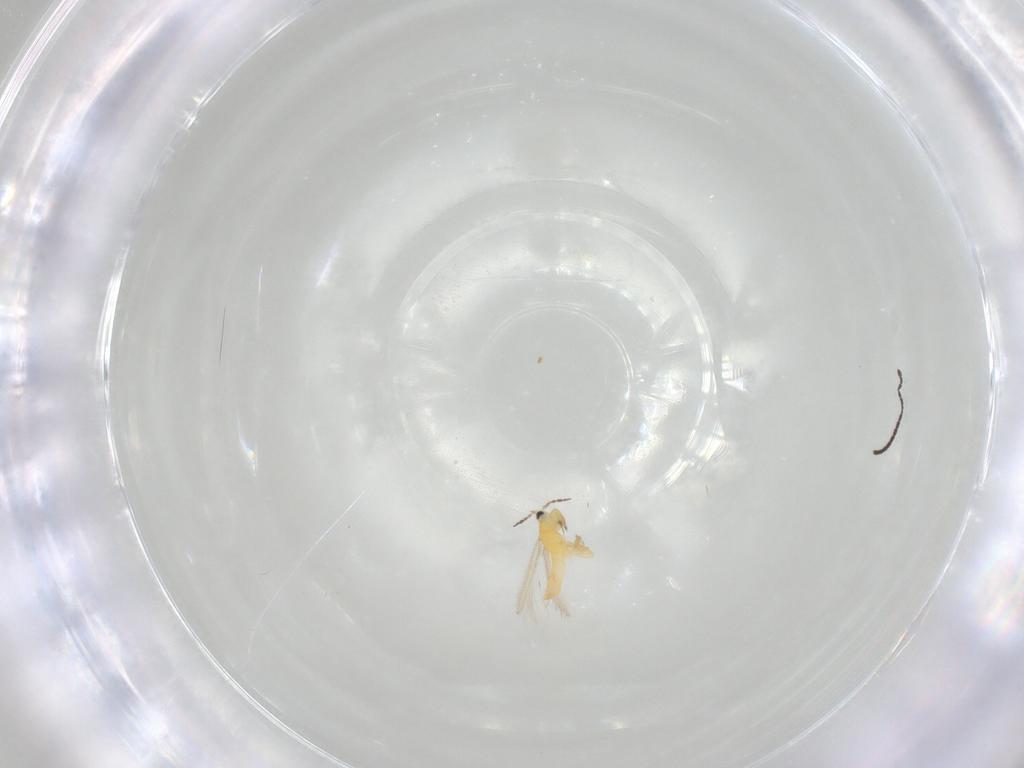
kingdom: Animalia
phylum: Arthropoda
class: Insecta
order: Thysanoptera
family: Melanthripidae
